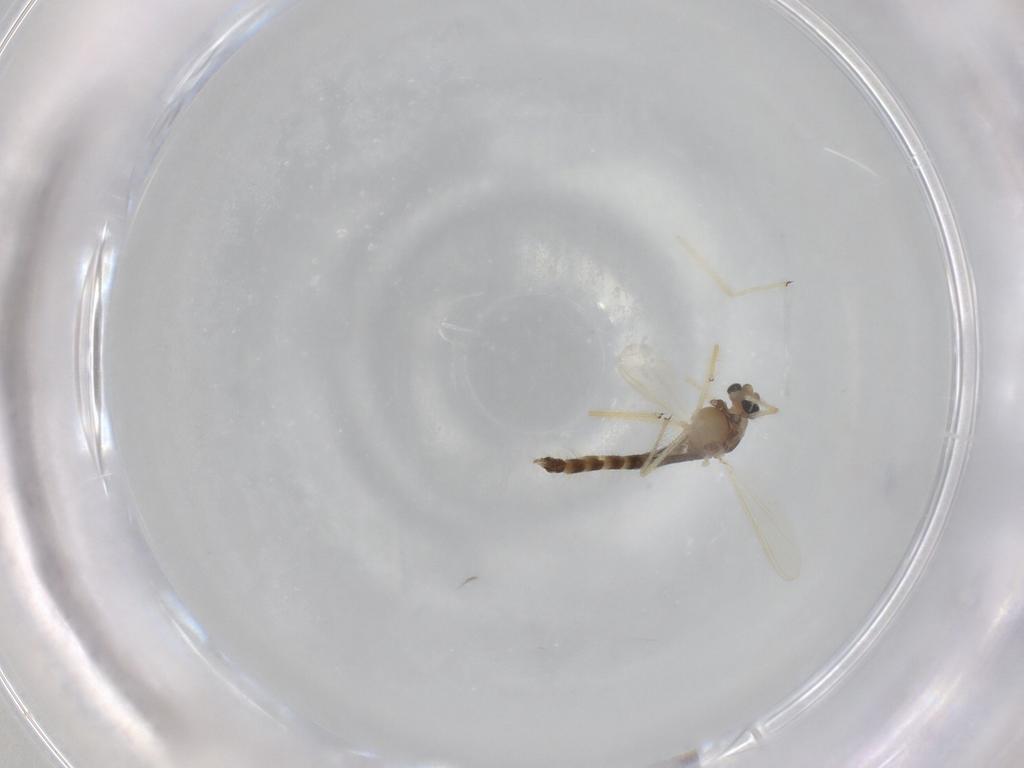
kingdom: Animalia
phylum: Arthropoda
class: Insecta
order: Diptera
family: Chironomidae
